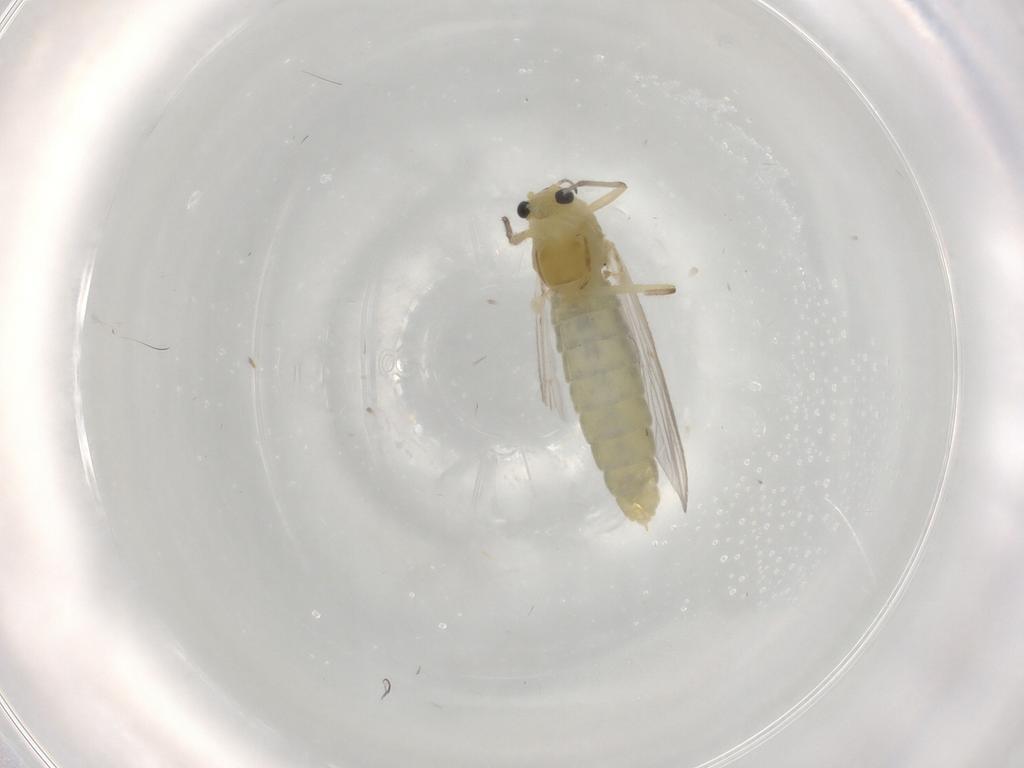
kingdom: Animalia
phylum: Arthropoda
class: Insecta
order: Diptera
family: Chironomidae
